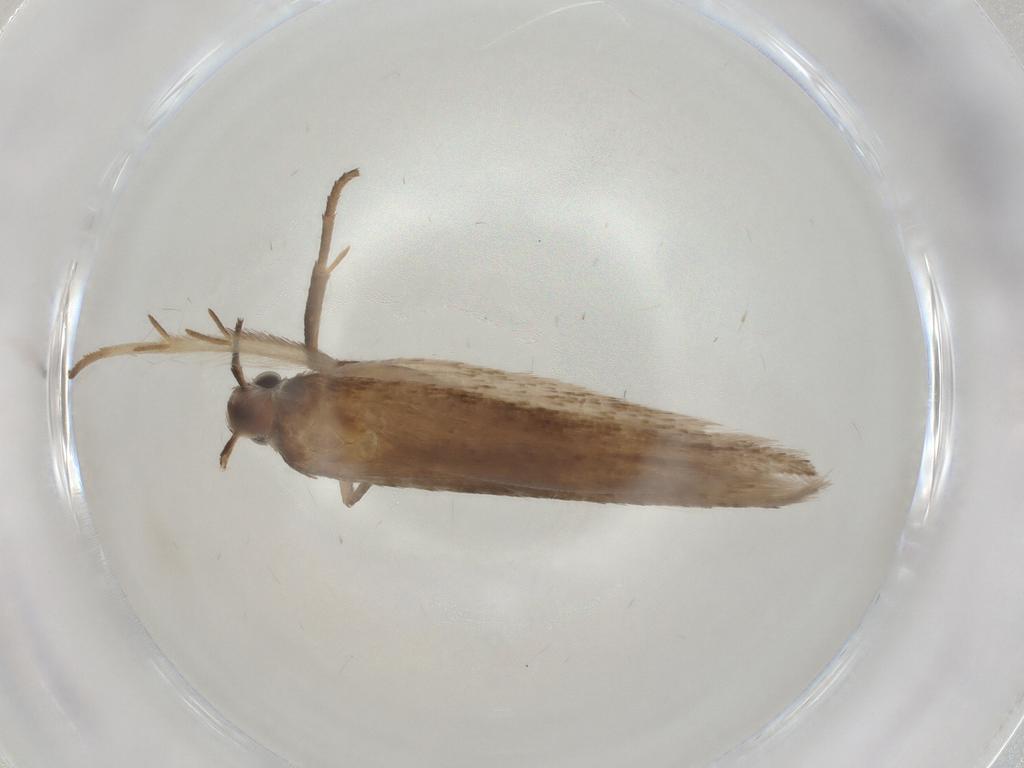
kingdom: Animalia
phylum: Arthropoda
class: Insecta
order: Lepidoptera
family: Gelechiidae
